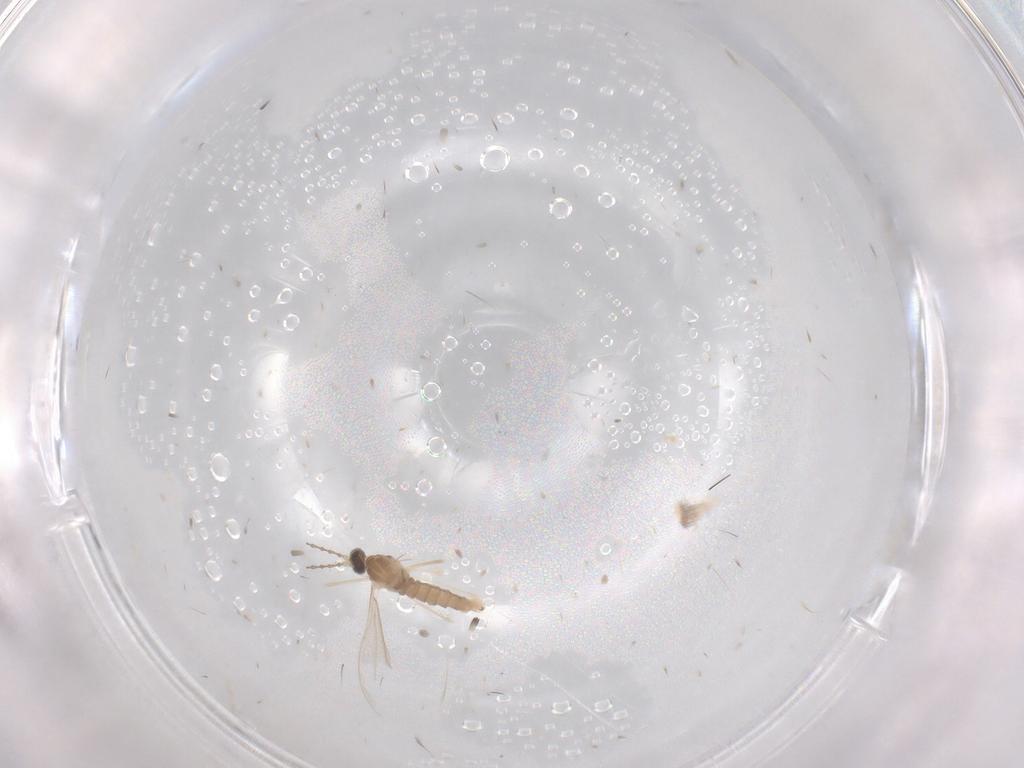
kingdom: Animalia
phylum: Arthropoda
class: Insecta
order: Diptera
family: Cecidomyiidae
